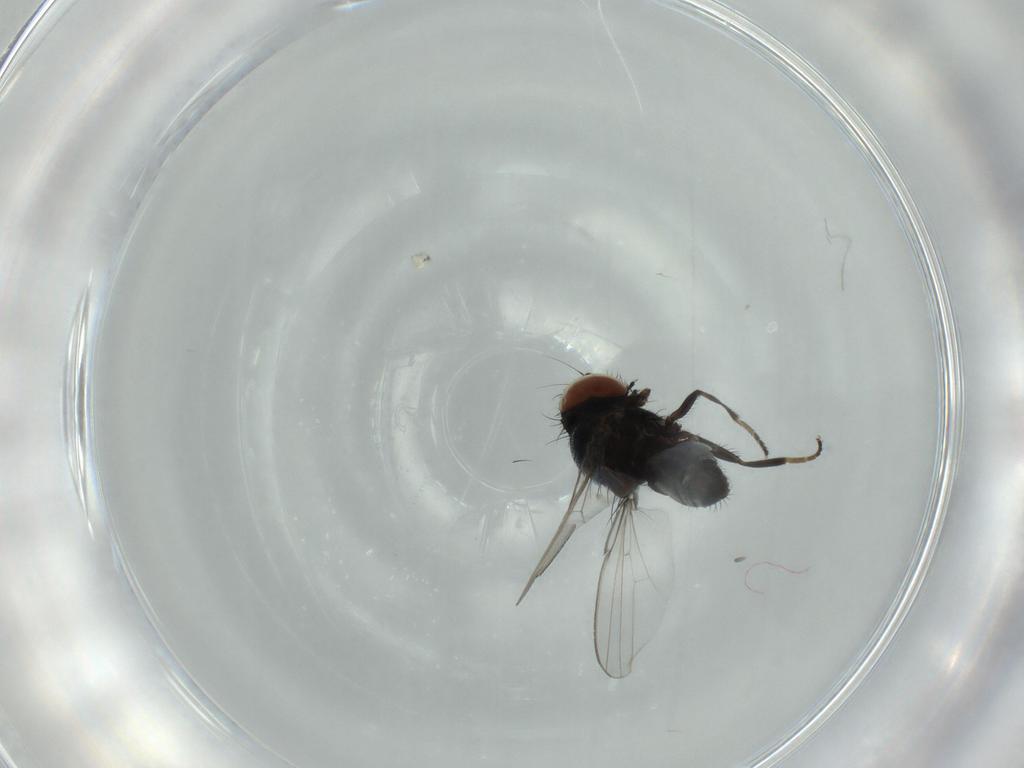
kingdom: Animalia
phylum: Arthropoda
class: Insecta
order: Diptera
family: Milichiidae
